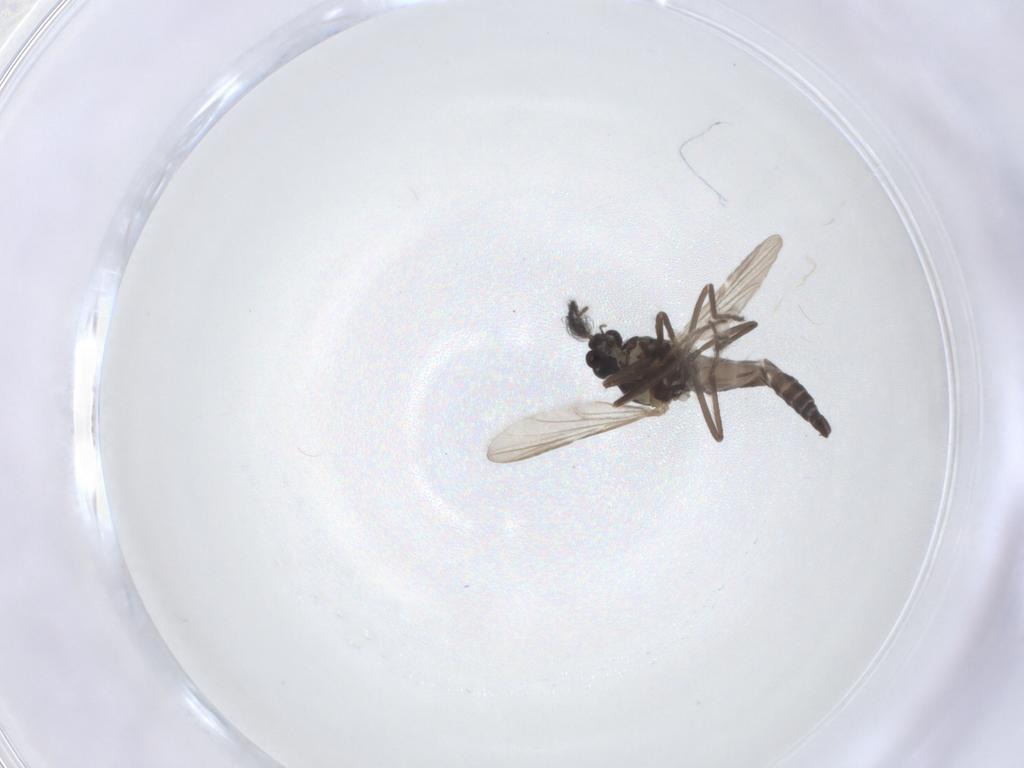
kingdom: Animalia
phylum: Arthropoda
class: Insecta
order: Diptera
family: Ceratopogonidae
